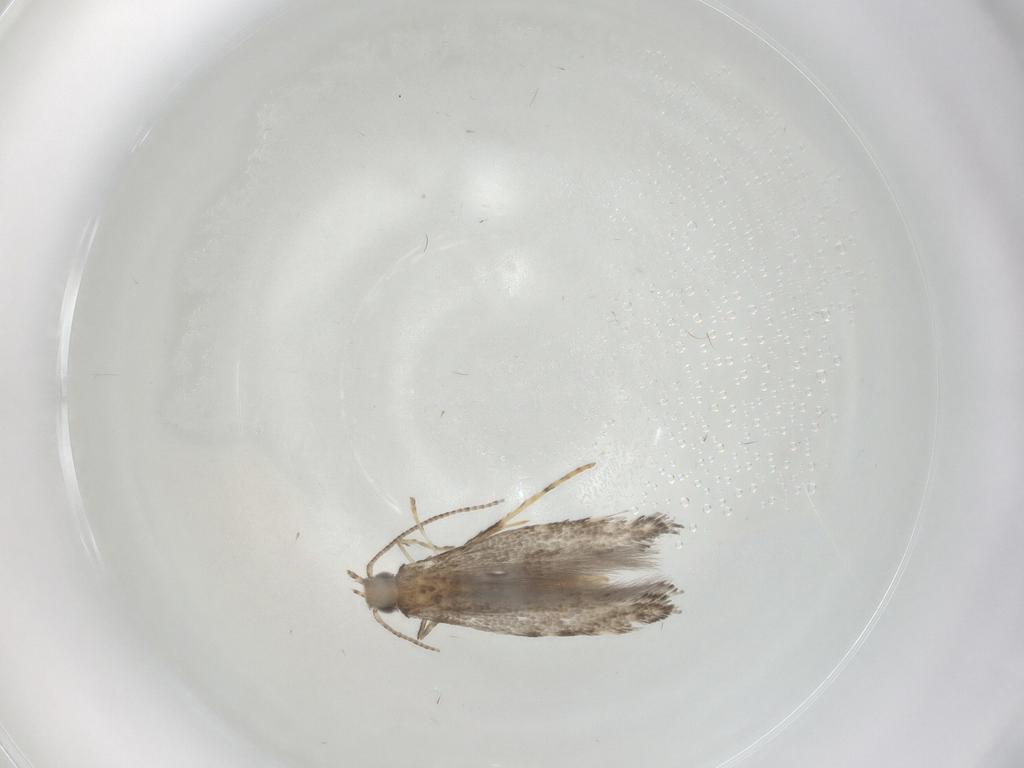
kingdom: Animalia
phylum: Arthropoda
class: Insecta
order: Lepidoptera
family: Gracillariidae
